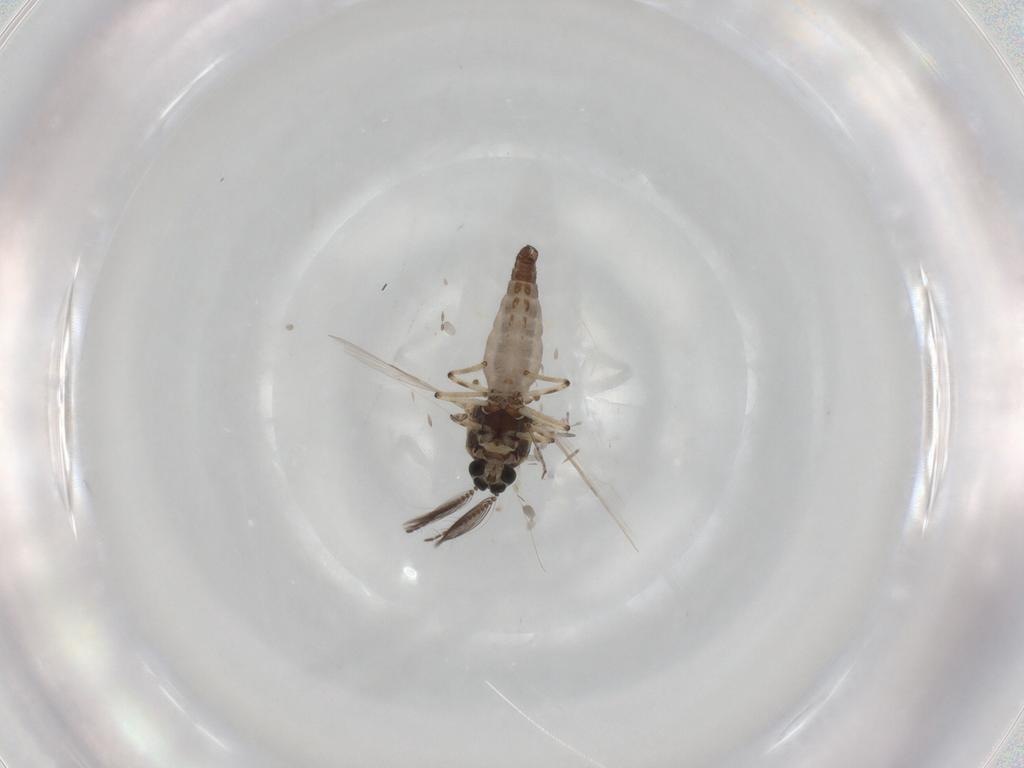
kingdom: Animalia
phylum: Arthropoda
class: Insecta
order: Diptera
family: Ceratopogonidae
